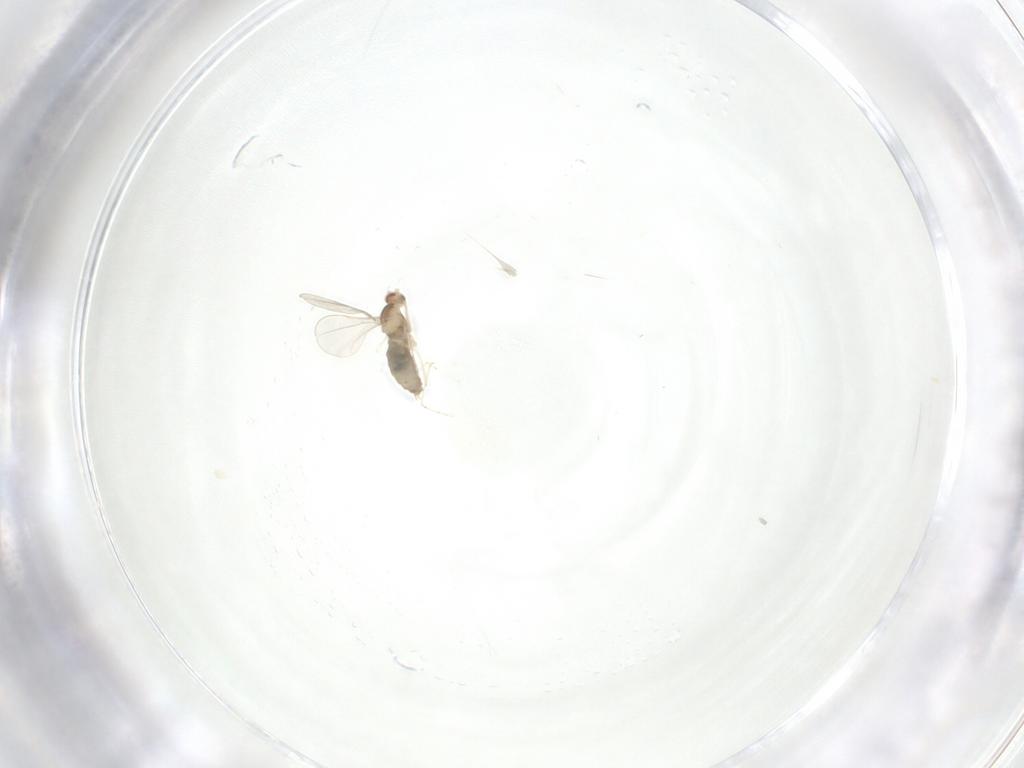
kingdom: Animalia
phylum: Arthropoda
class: Insecta
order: Diptera
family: Cecidomyiidae
